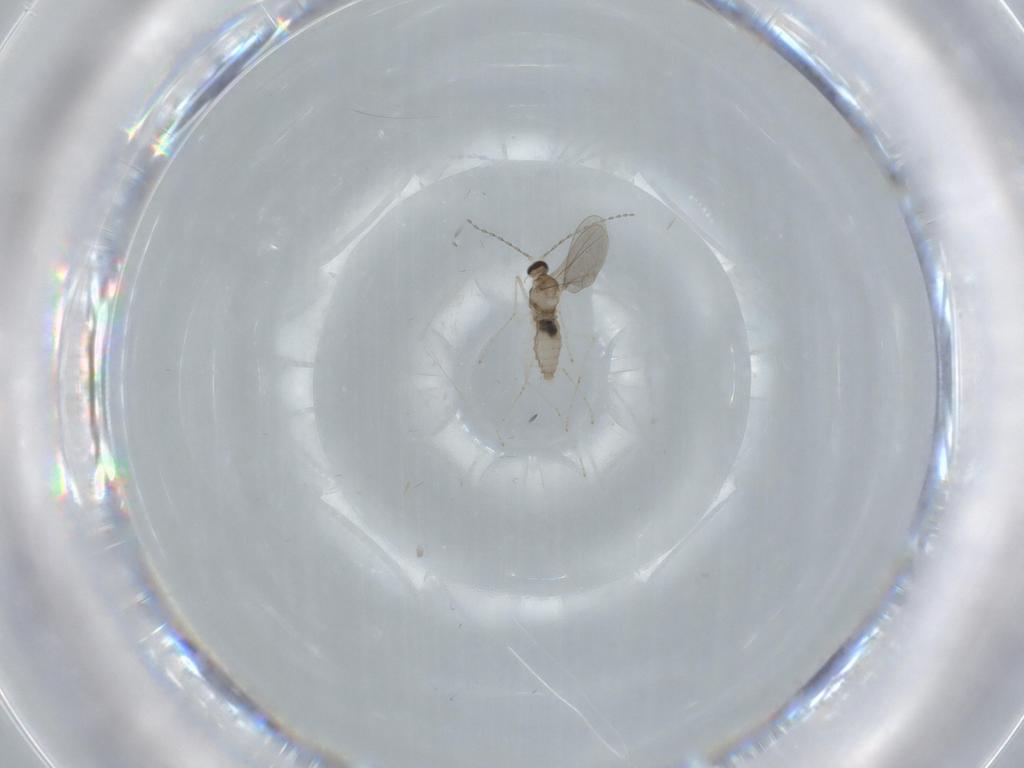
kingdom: Animalia
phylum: Arthropoda
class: Insecta
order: Diptera
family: Cecidomyiidae
